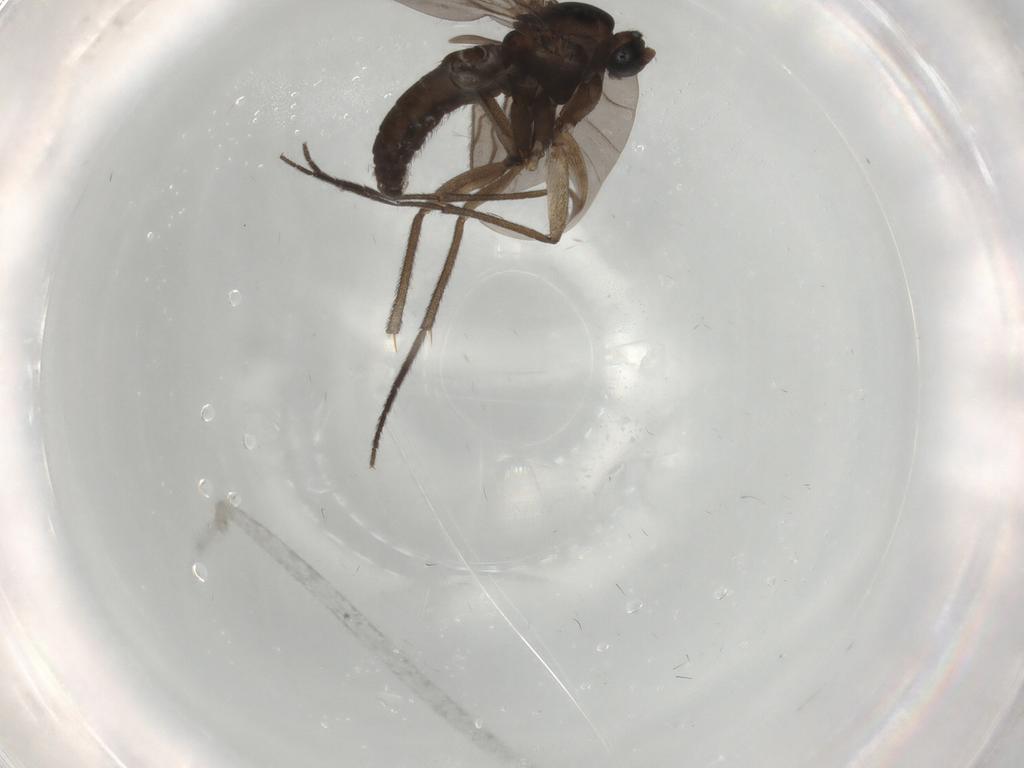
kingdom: Animalia
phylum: Arthropoda
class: Insecta
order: Diptera
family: Sciaridae
